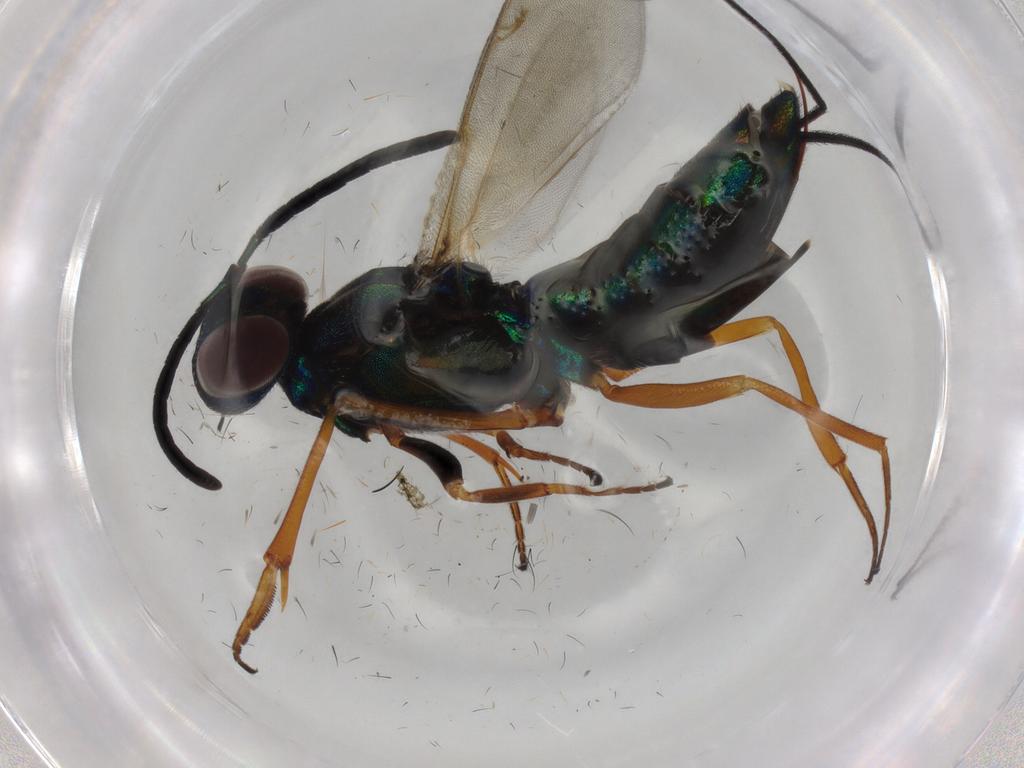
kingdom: Animalia
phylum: Arthropoda
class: Insecta
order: Hymenoptera
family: Eupelmidae
